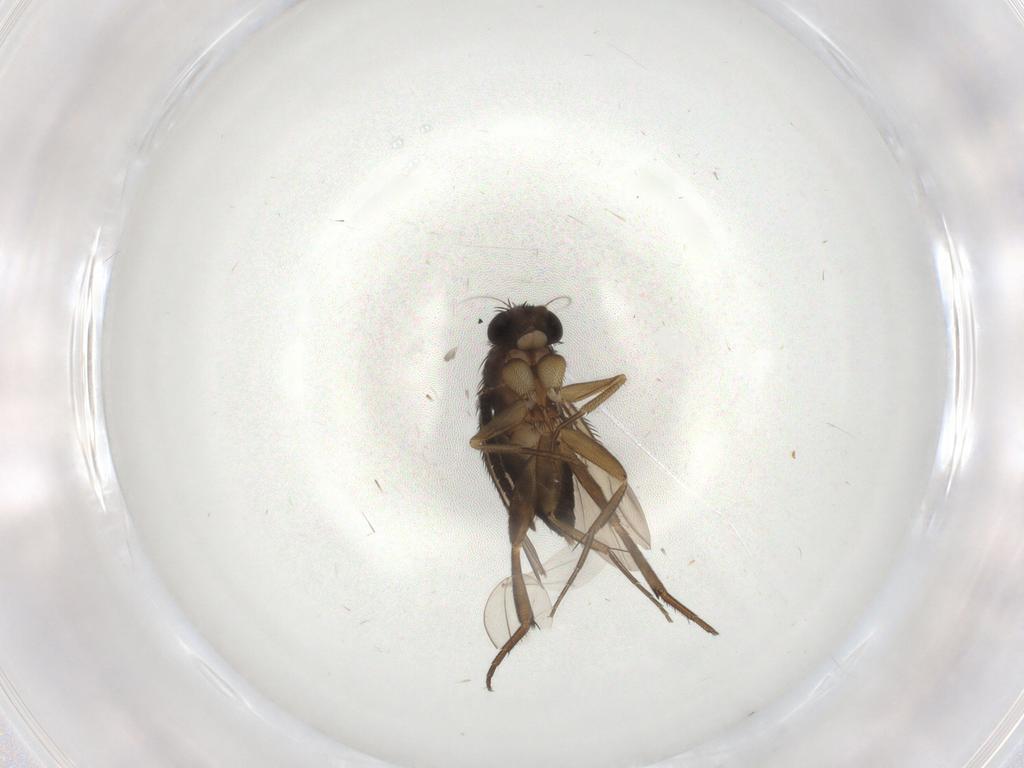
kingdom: Animalia
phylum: Arthropoda
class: Insecta
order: Diptera
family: Phoridae
